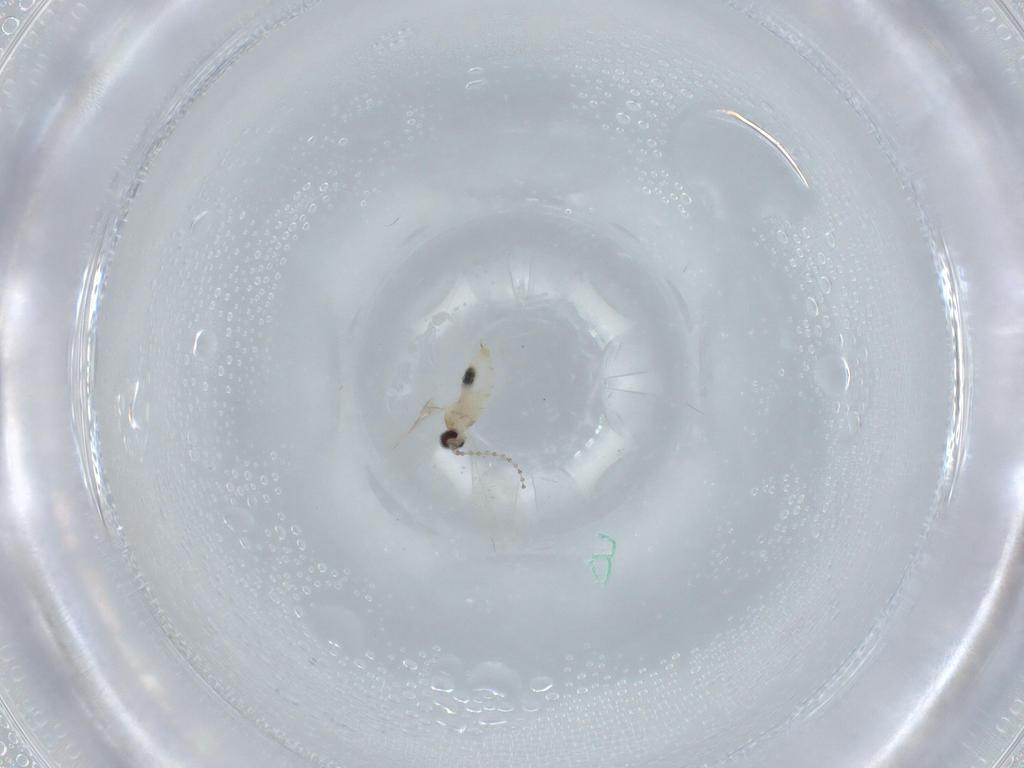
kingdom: Animalia
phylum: Arthropoda
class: Insecta
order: Diptera
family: Cecidomyiidae
